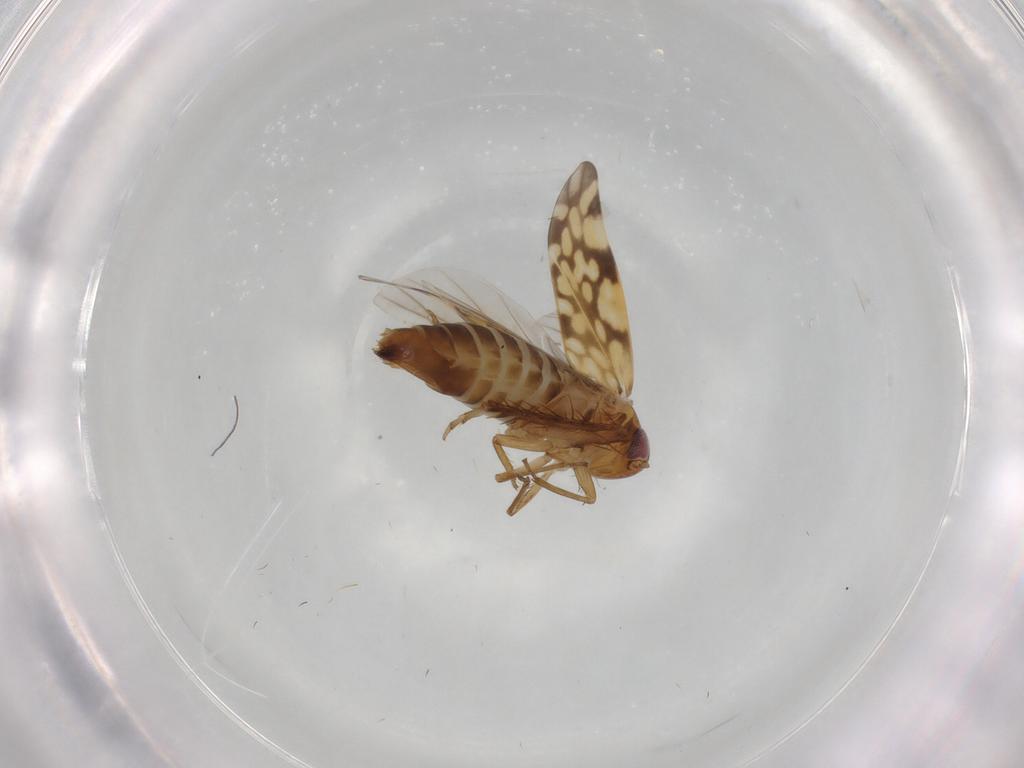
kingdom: Animalia
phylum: Arthropoda
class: Insecta
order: Hemiptera
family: Cicadellidae
